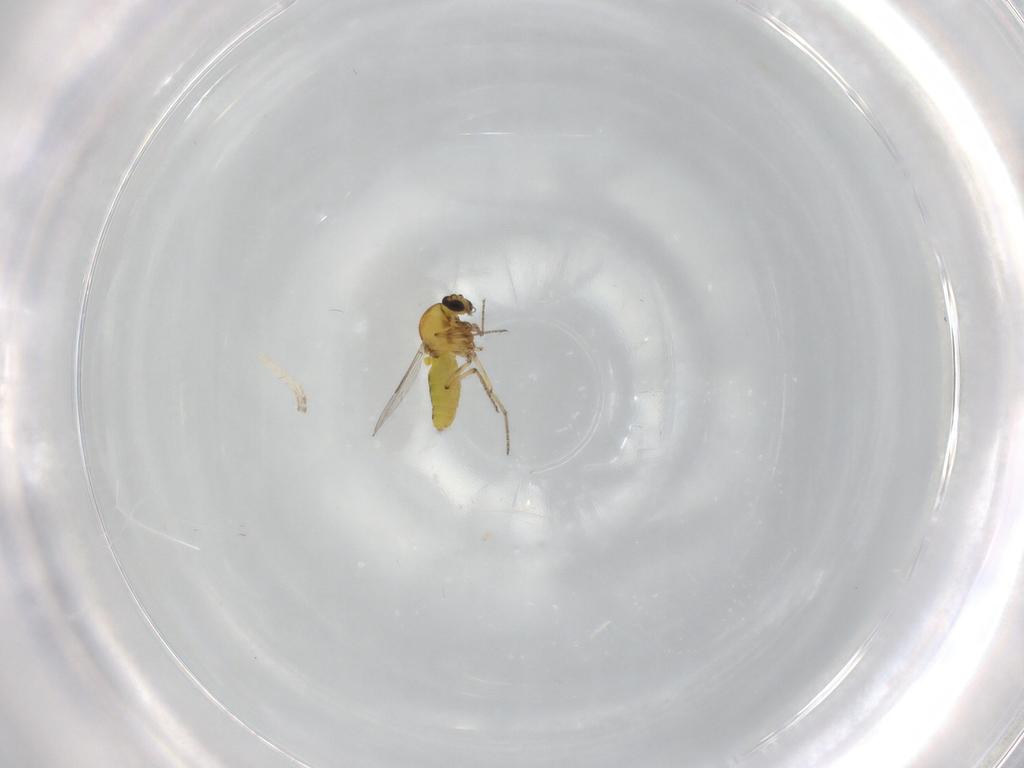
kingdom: Animalia
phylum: Arthropoda
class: Insecta
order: Diptera
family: Ceratopogonidae
